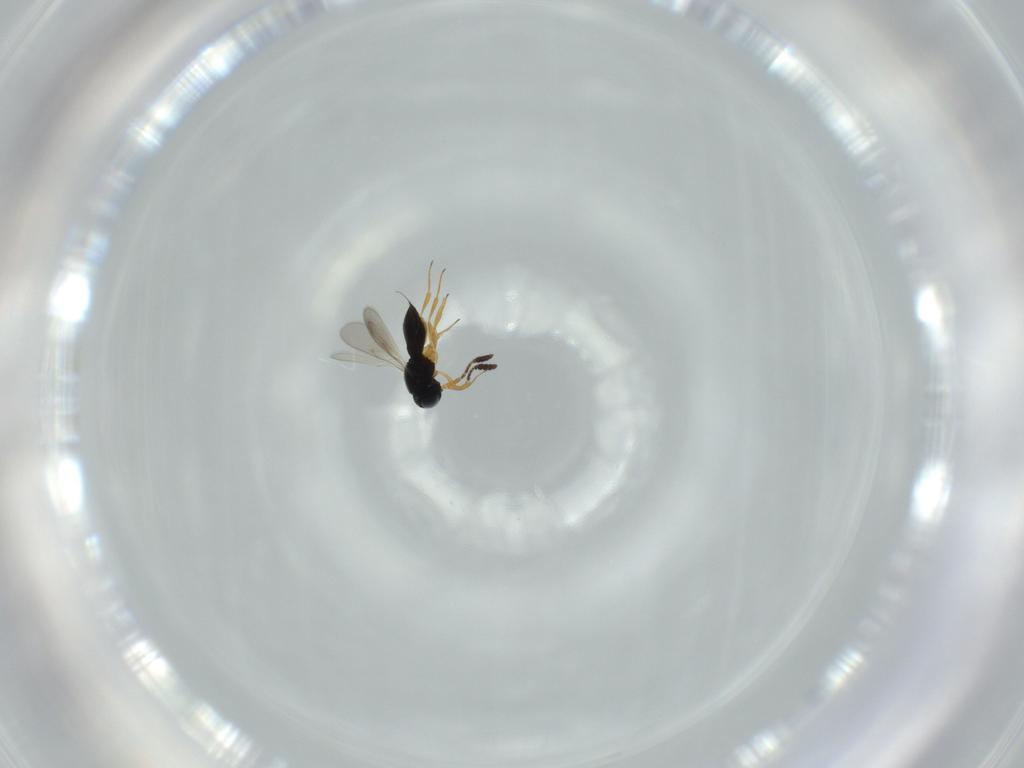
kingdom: Animalia
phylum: Arthropoda
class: Insecta
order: Hymenoptera
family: Scelionidae
